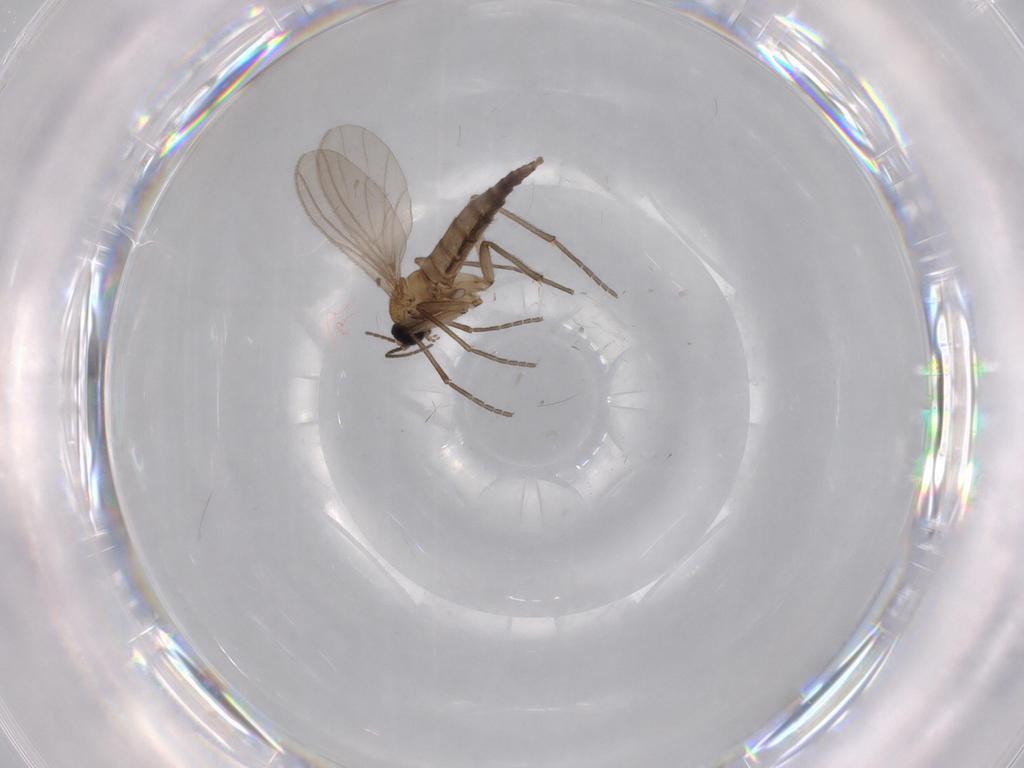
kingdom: Animalia
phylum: Arthropoda
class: Insecta
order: Diptera
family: Sciaridae
